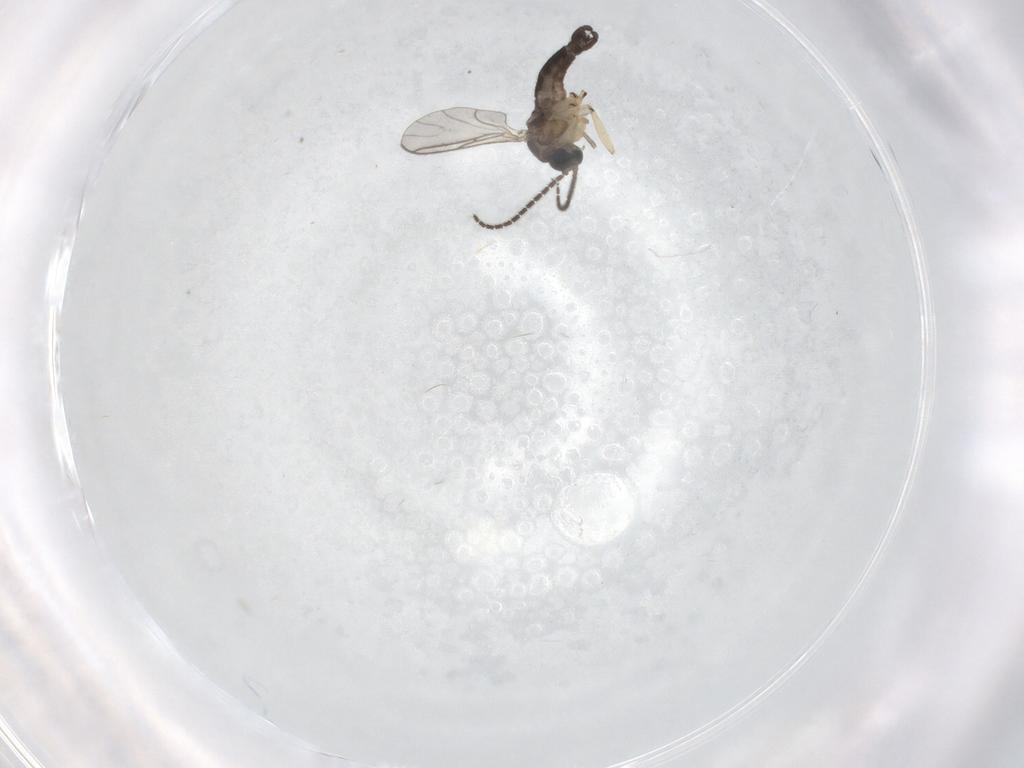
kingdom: Animalia
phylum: Arthropoda
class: Insecta
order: Diptera
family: Cecidomyiidae
